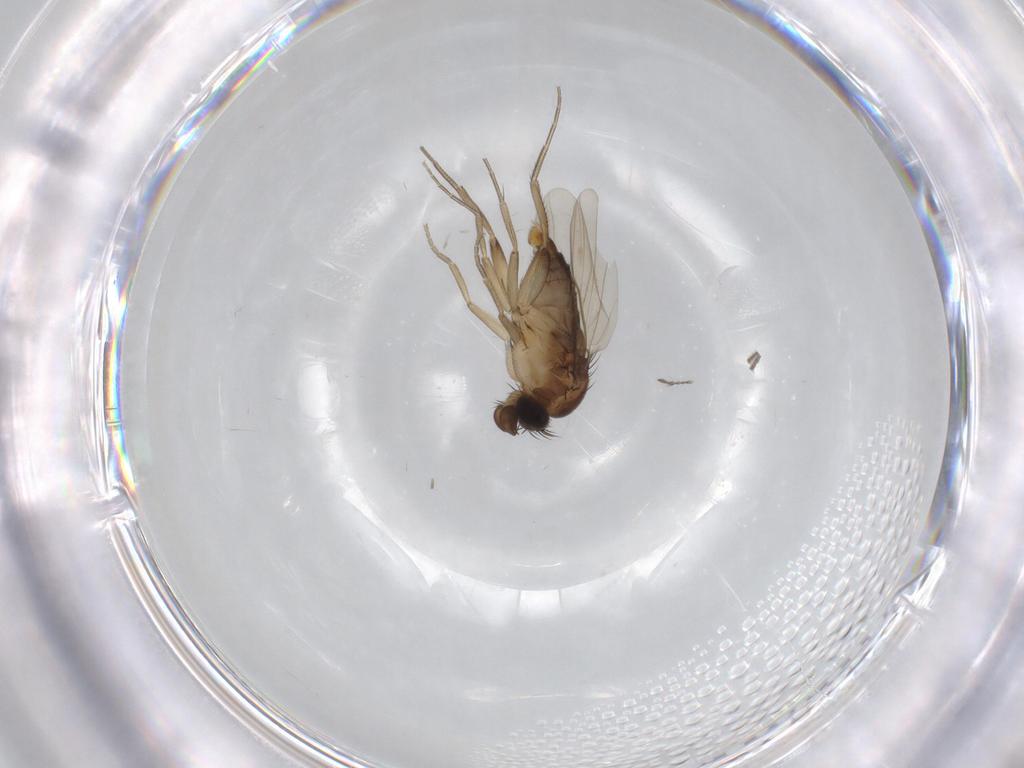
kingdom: Animalia
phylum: Arthropoda
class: Insecta
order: Diptera
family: Phoridae
